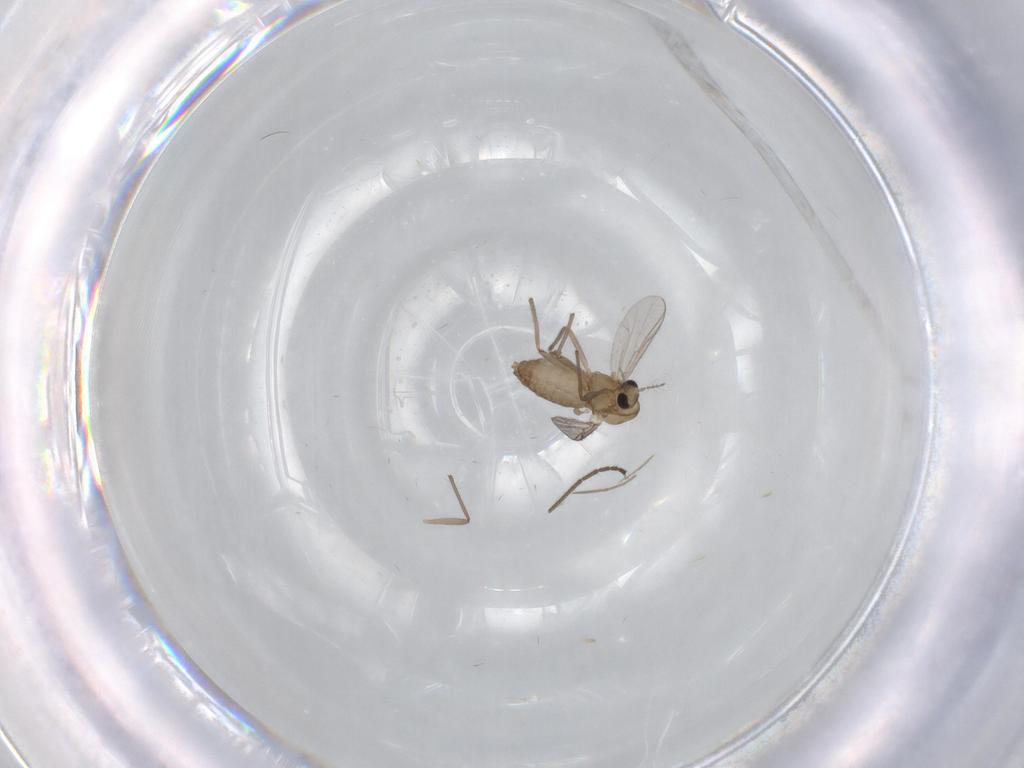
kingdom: Animalia
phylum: Arthropoda
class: Insecta
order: Diptera
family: Chironomidae
